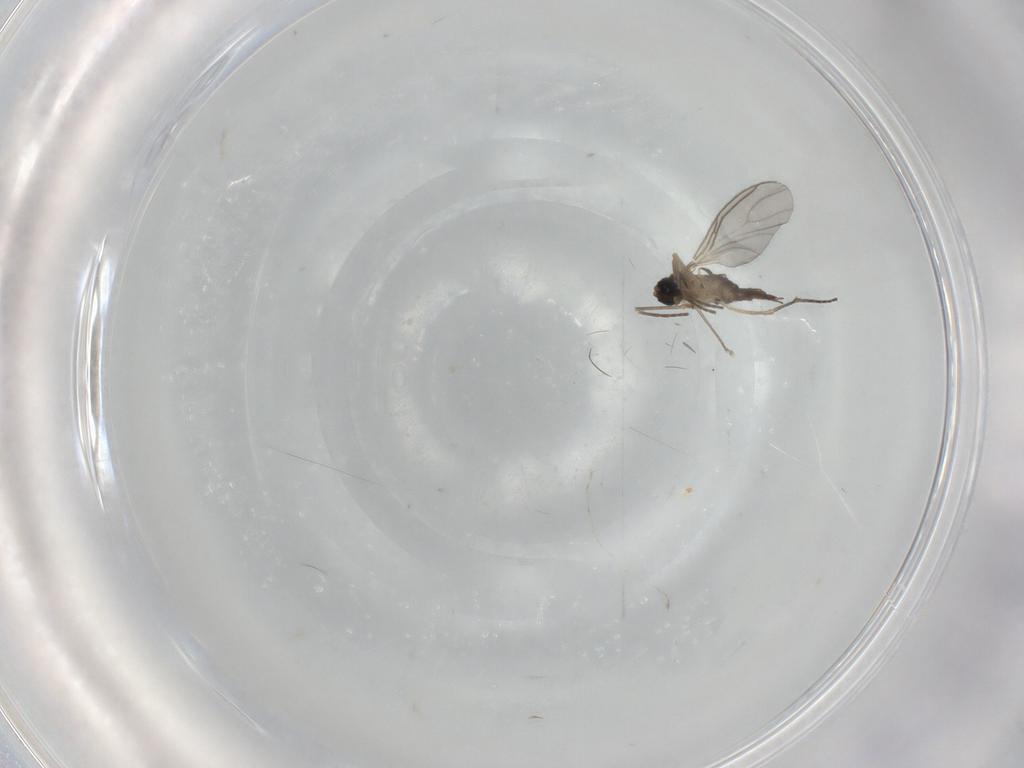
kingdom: Animalia
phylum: Arthropoda
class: Insecta
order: Diptera
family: Sciaridae
